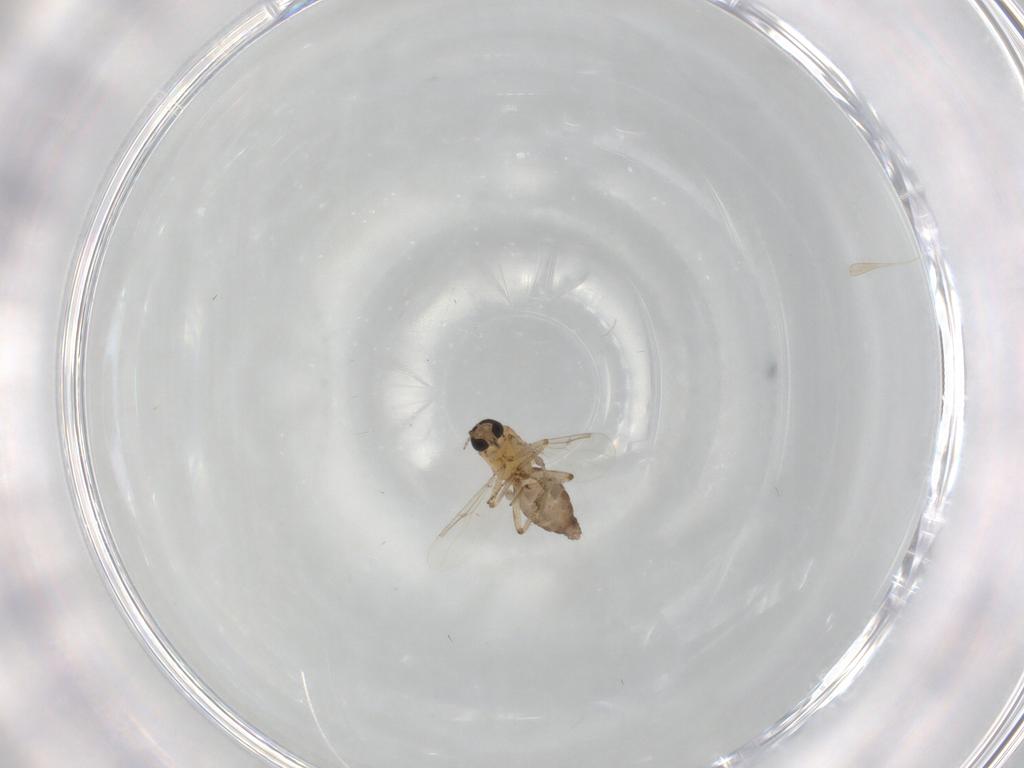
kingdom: Animalia
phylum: Arthropoda
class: Insecta
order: Diptera
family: Ceratopogonidae
